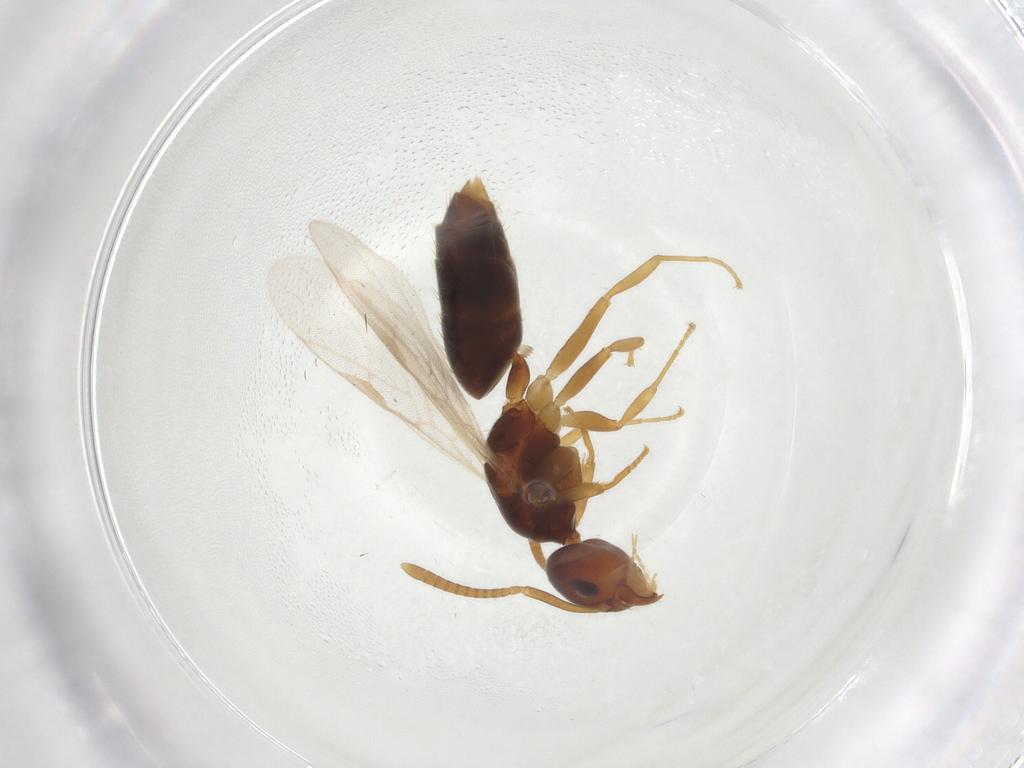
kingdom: Animalia
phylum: Arthropoda
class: Insecta
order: Hymenoptera
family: Formicidae
